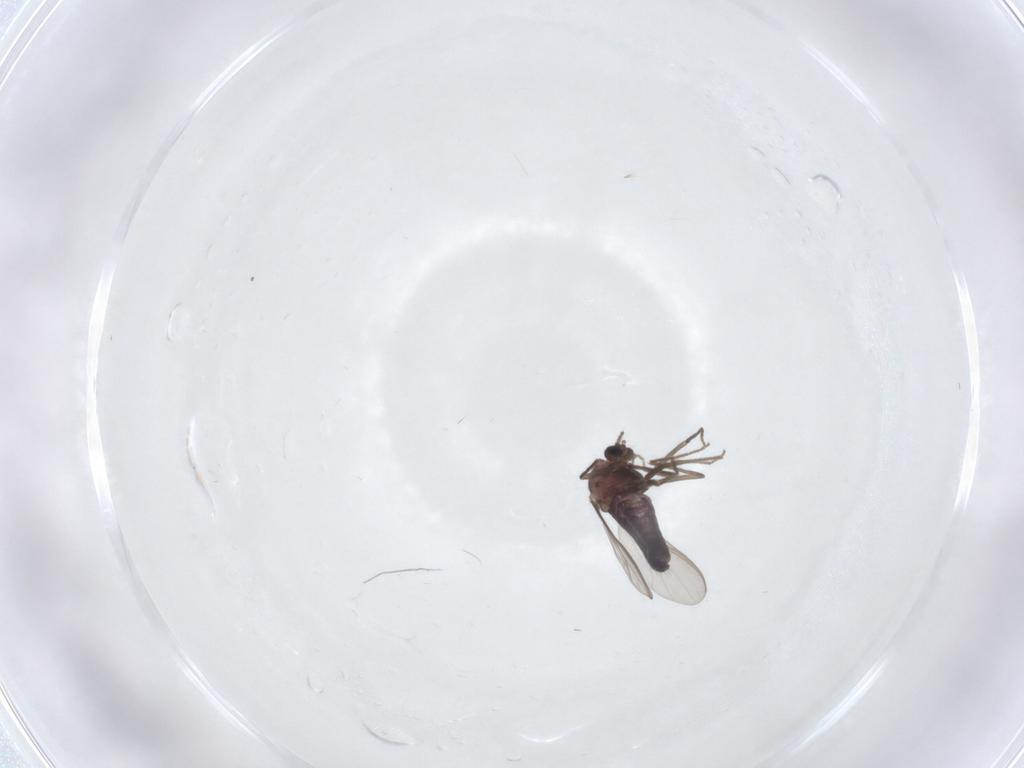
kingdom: Animalia
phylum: Arthropoda
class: Insecta
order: Diptera
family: Chironomidae
